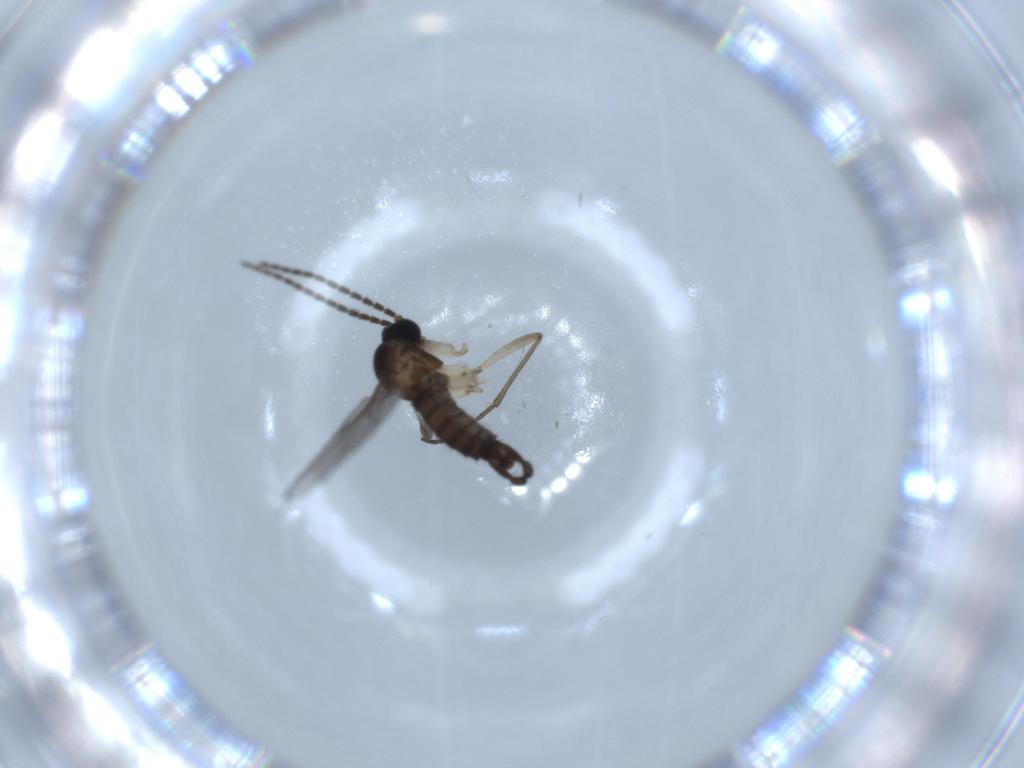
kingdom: Animalia
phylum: Arthropoda
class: Insecta
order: Diptera
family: Sciaridae
